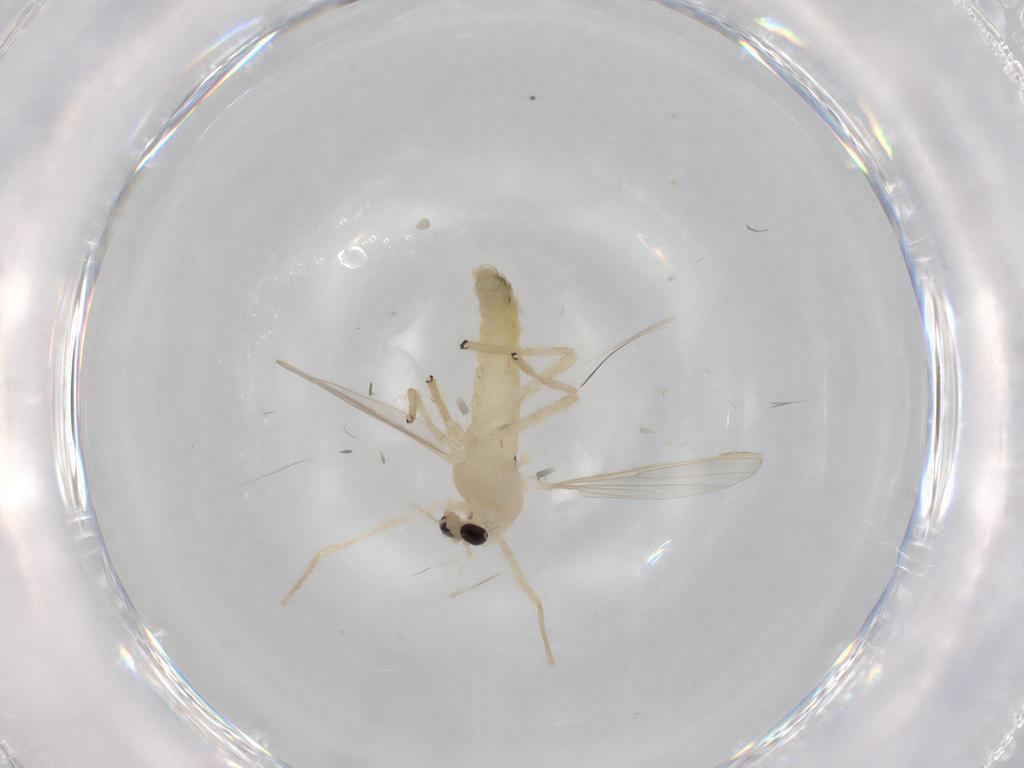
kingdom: Animalia
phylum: Arthropoda
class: Insecta
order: Diptera
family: Chironomidae
